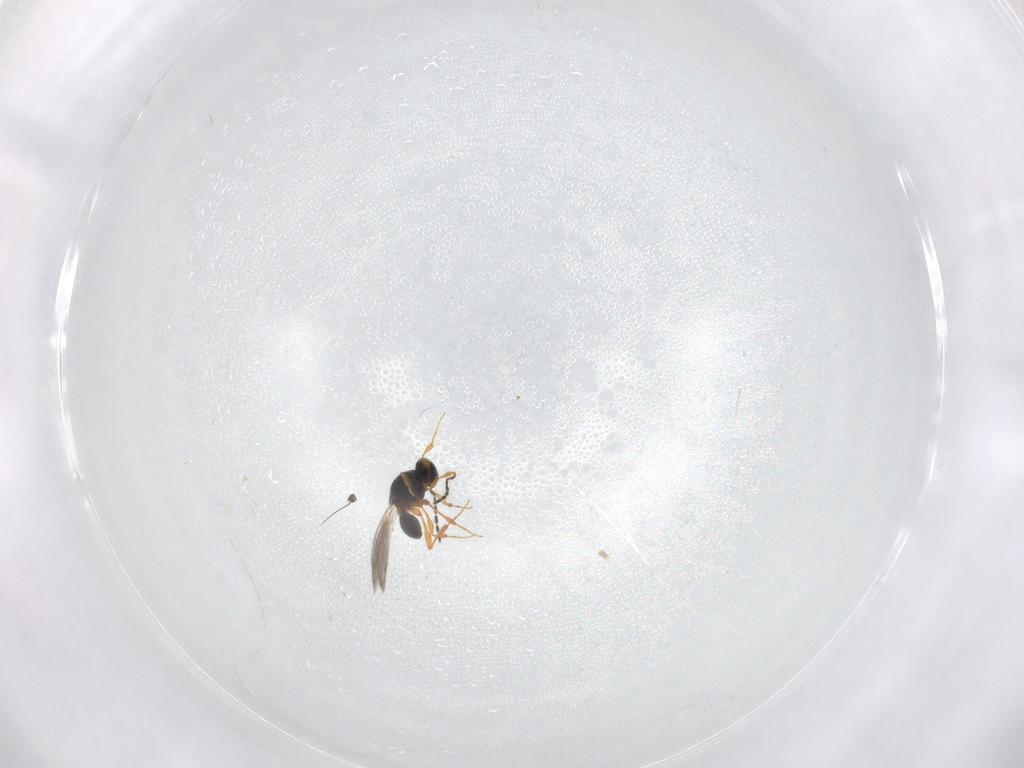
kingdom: Animalia
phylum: Arthropoda
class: Insecta
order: Hymenoptera
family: Platygastridae
